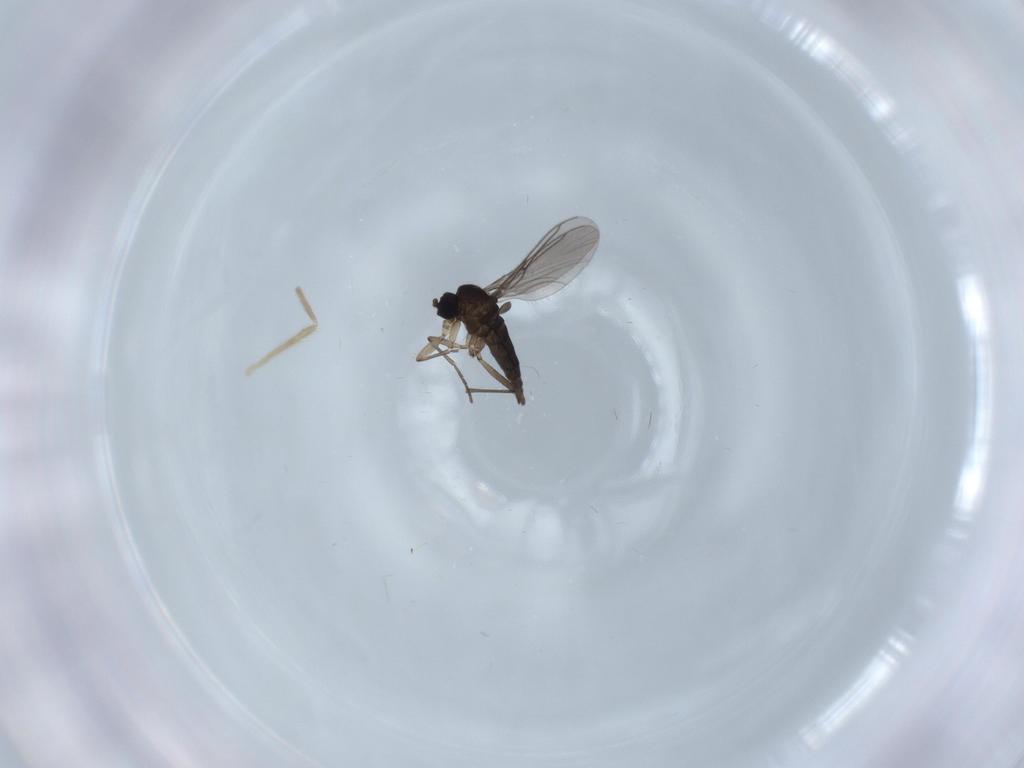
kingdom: Animalia
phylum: Arthropoda
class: Insecta
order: Diptera
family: Sciaridae
